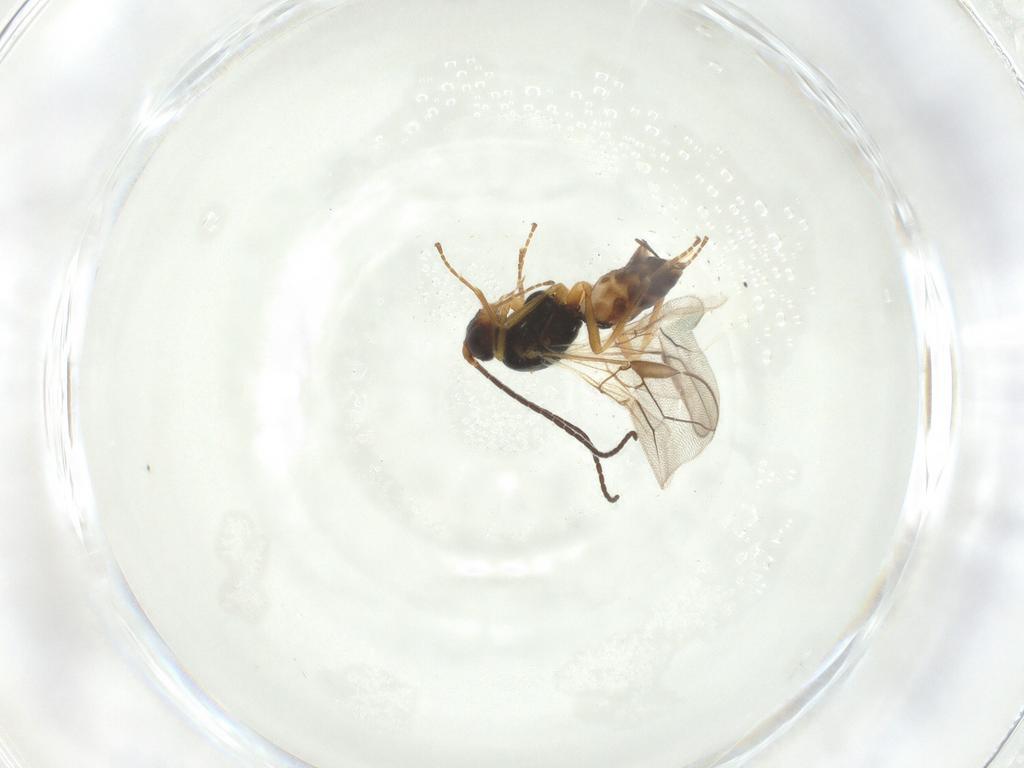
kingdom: Animalia
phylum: Arthropoda
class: Insecta
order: Hymenoptera
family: Braconidae
